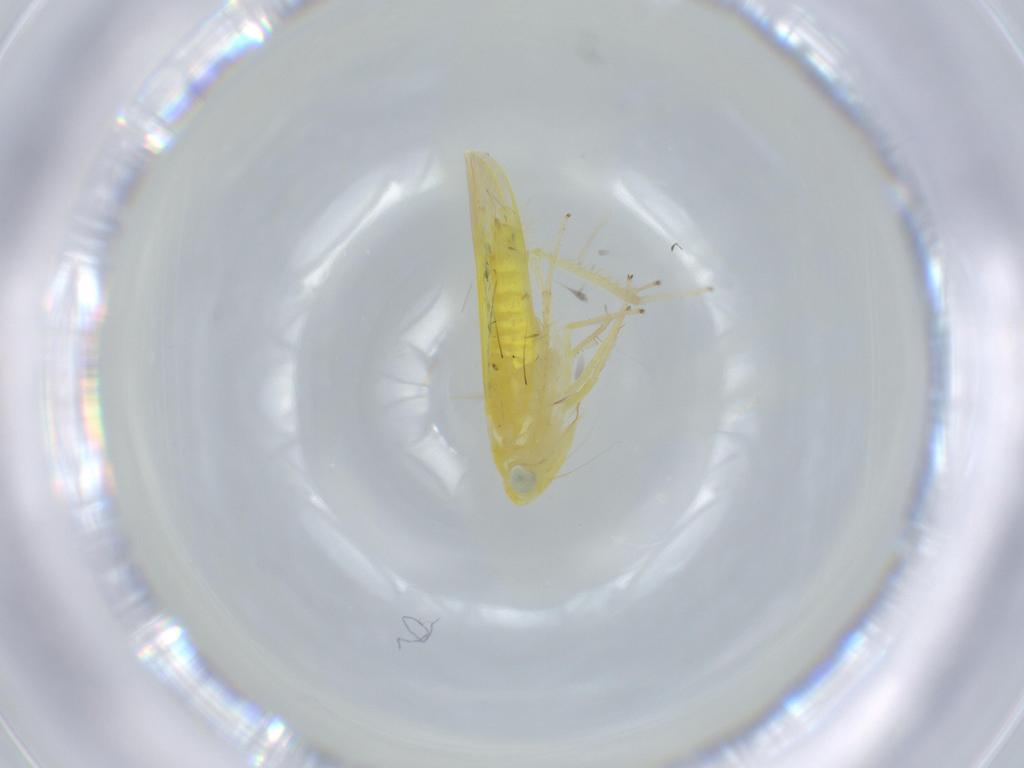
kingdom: Animalia
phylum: Arthropoda
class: Insecta
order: Hemiptera
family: Cicadellidae
